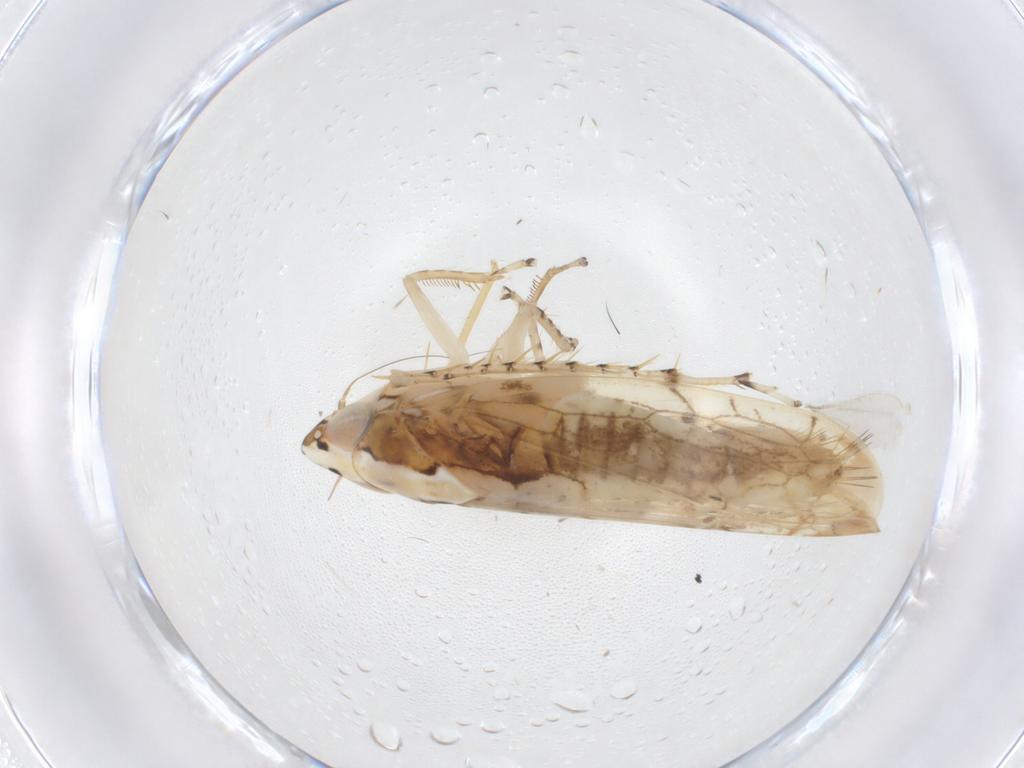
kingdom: Animalia
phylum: Arthropoda
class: Insecta
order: Hemiptera
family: Cicadellidae
